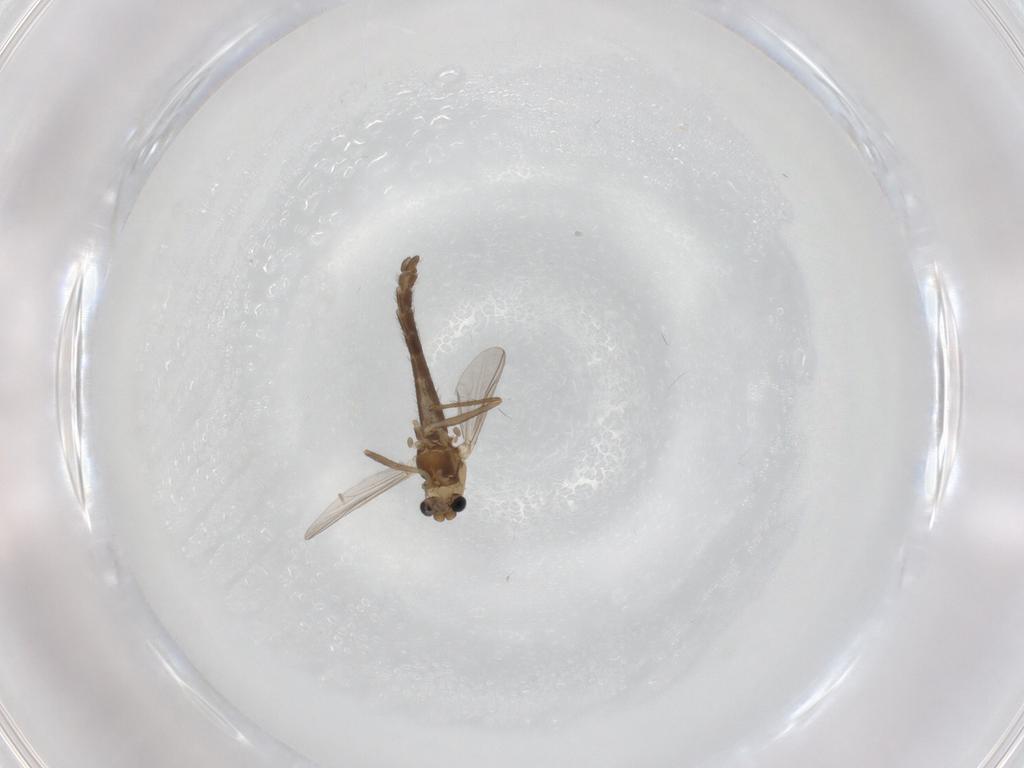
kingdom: Animalia
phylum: Arthropoda
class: Insecta
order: Diptera
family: Chironomidae
